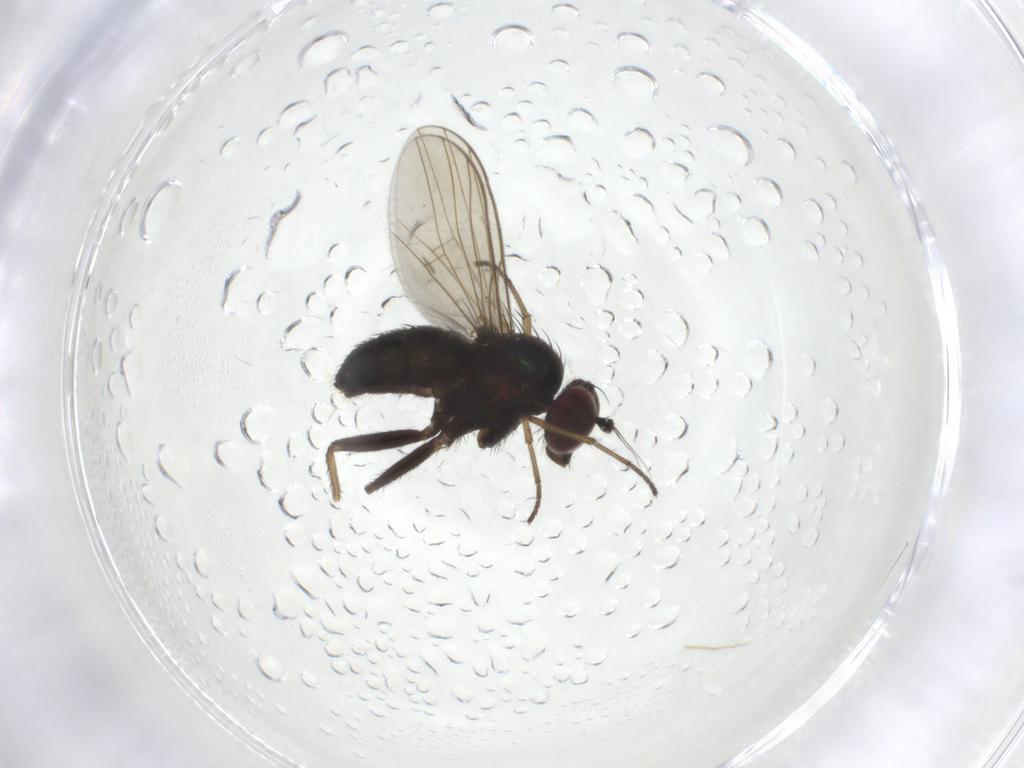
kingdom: Animalia
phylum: Arthropoda
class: Insecta
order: Diptera
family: Dolichopodidae
